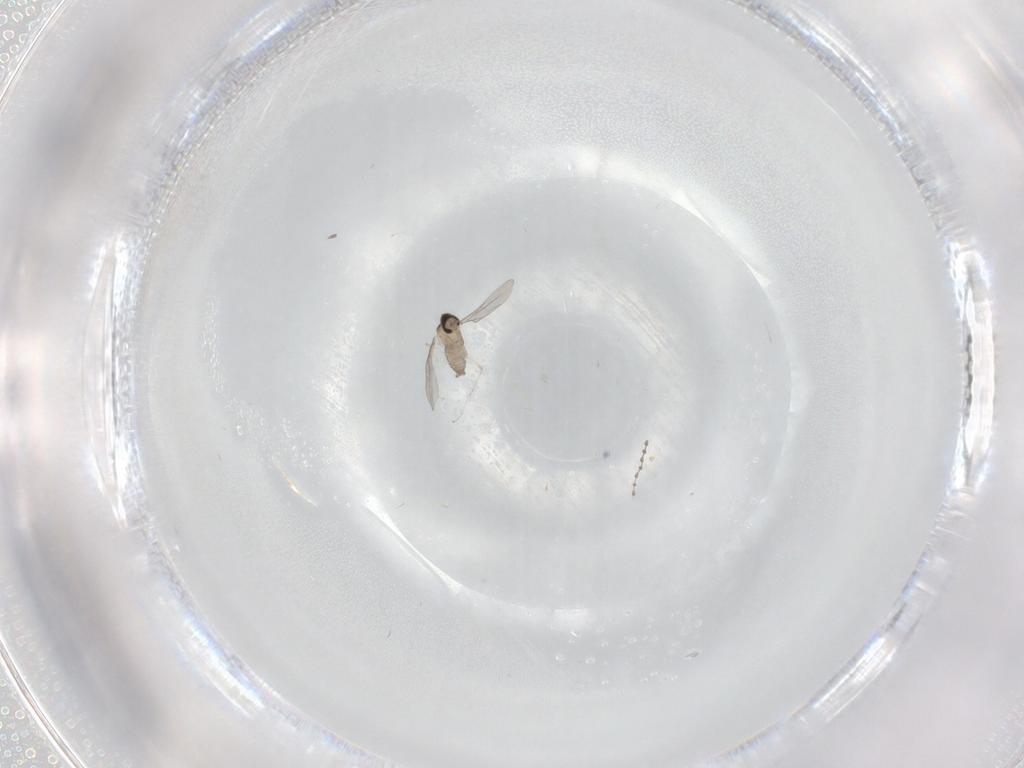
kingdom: Animalia
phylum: Arthropoda
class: Insecta
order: Diptera
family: Cecidomyiidae
